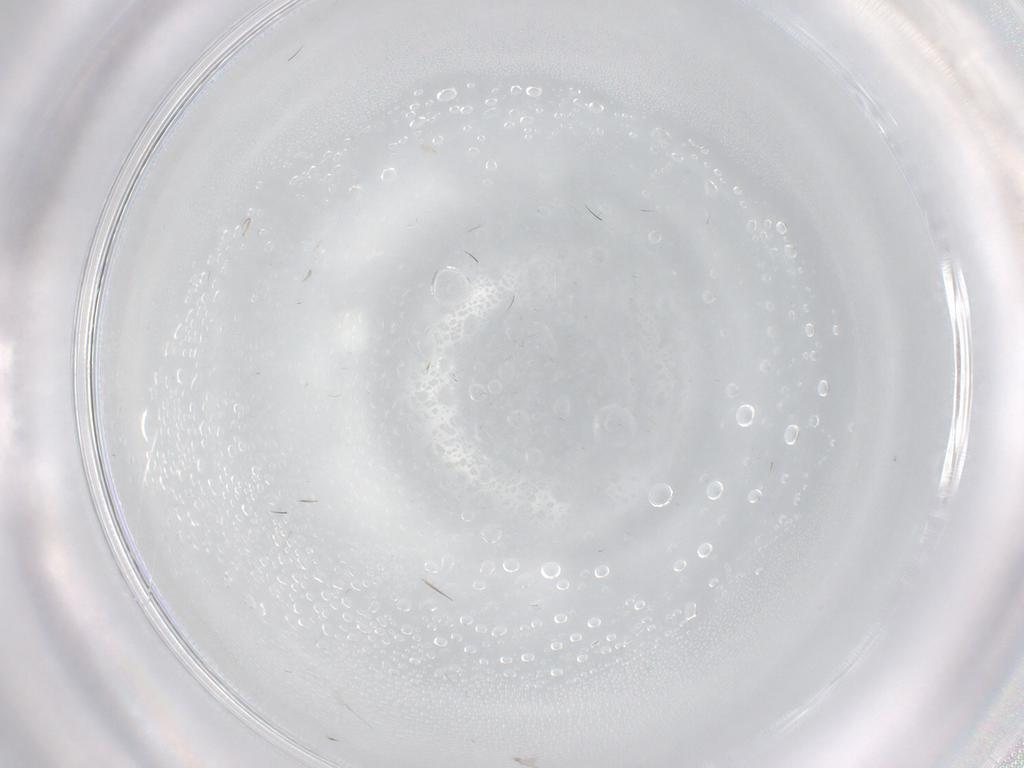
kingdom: Animalia
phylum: Arthropoda
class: Insecta
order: Diptera
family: Cecidomyiidae
